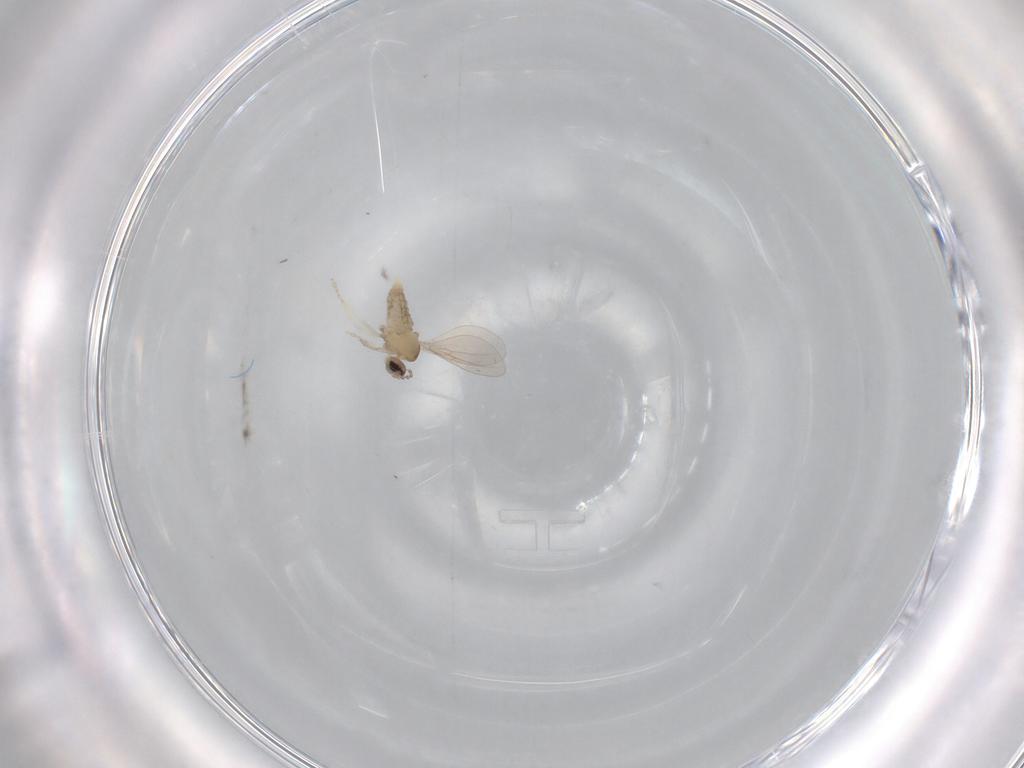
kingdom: Animalia
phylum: Arthropoda
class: Insecta
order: Diptera
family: Cecidomyiidae
